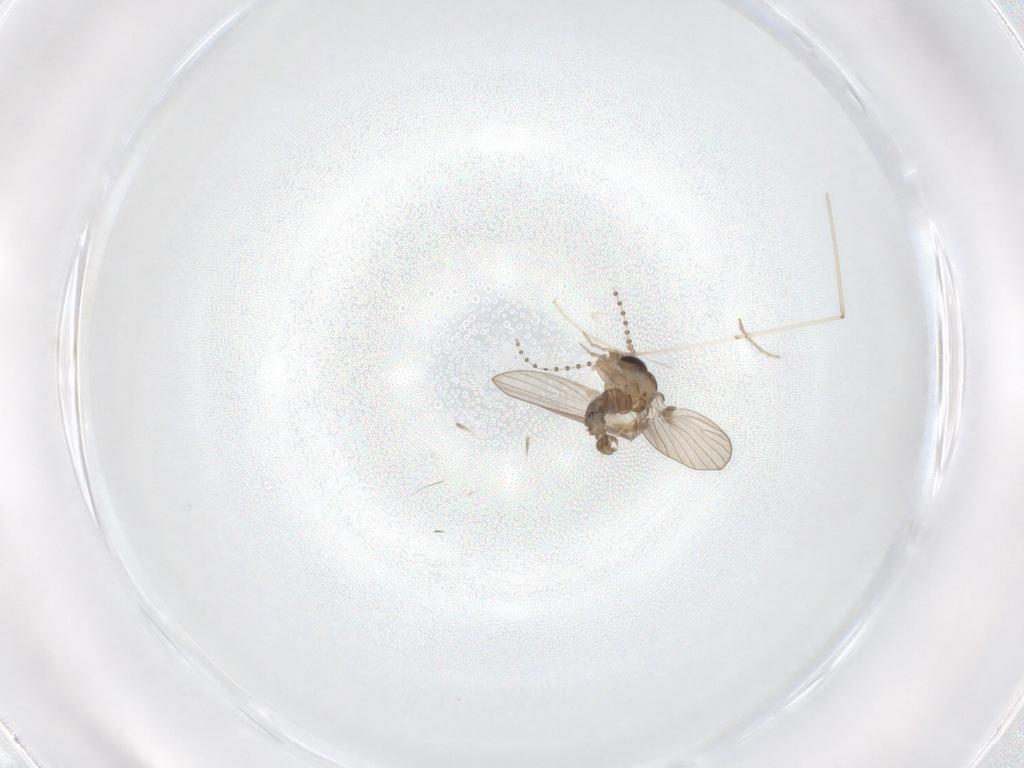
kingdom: Animalia
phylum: Arthropoda
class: Insecta
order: Diptera
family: Psychodidae
